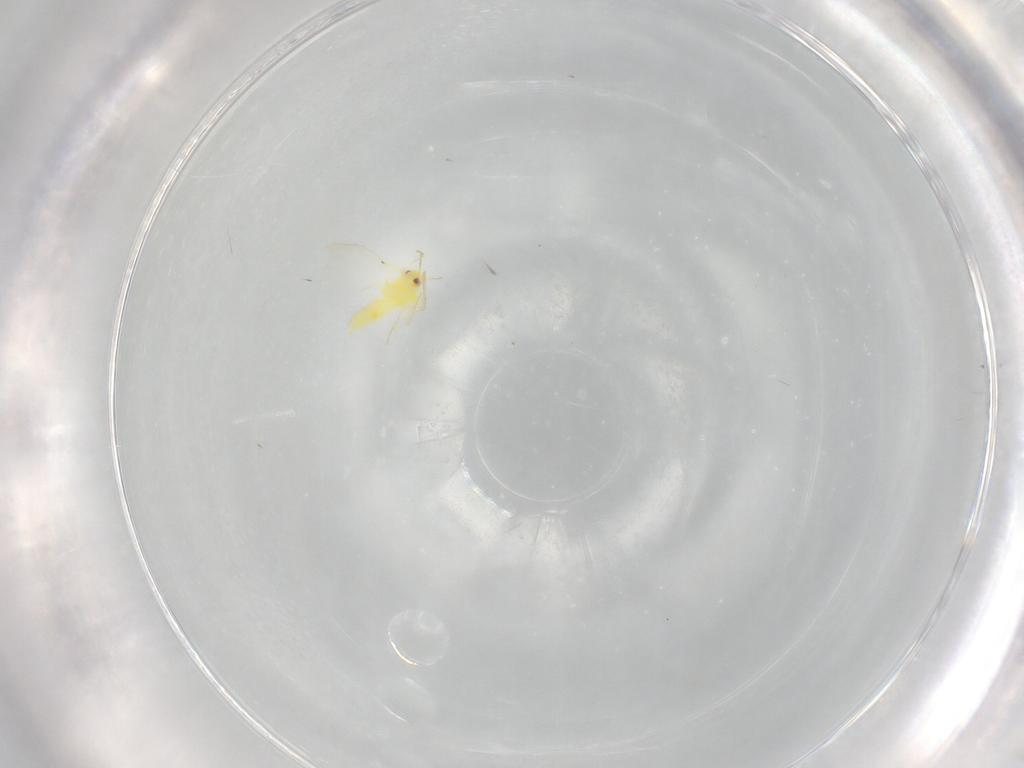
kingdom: Animalia
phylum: Arthropoda
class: Insecta
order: Hemiptera
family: Aleyrodidae
